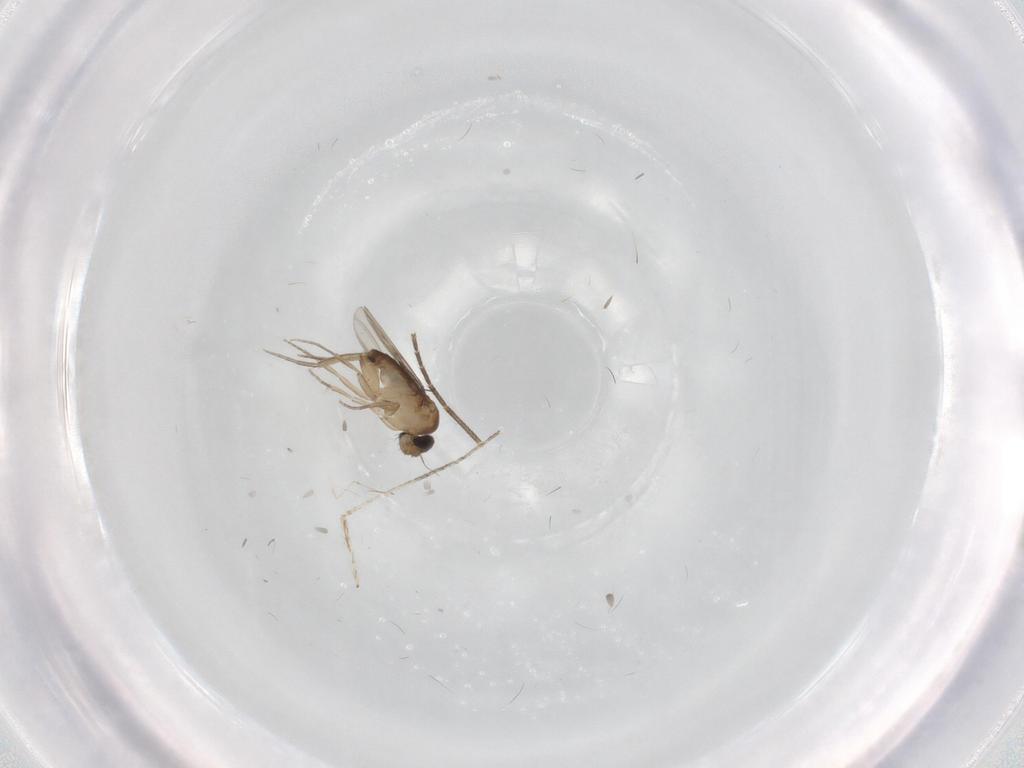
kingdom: Animalia
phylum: Arthropoda
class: Insecta
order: Diptera
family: Phoridae
